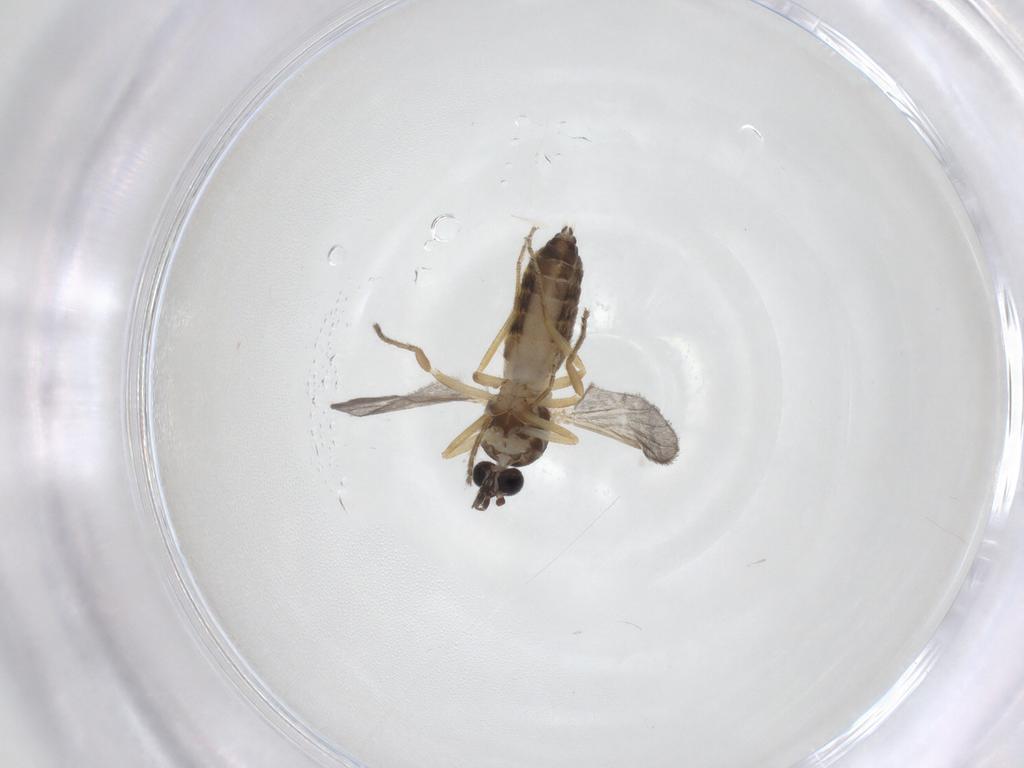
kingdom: Animalia
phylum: Arthropoda
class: Insecta
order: Diptera
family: Ceratopogonidae
